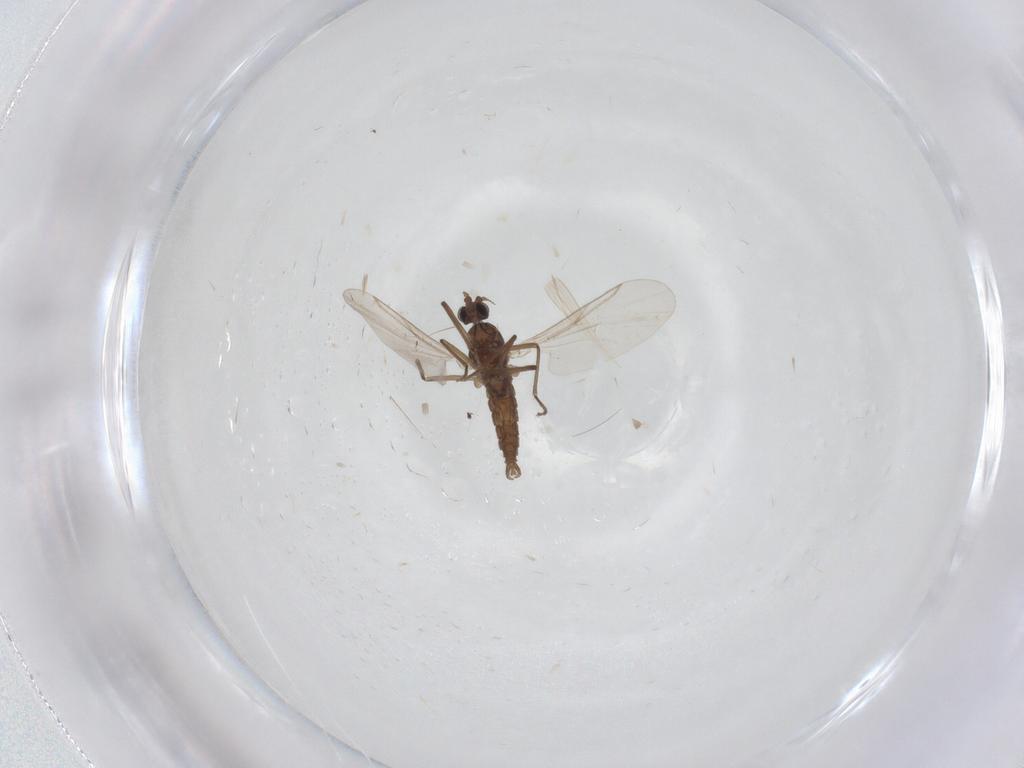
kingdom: Animalia
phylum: Arthropoda
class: Insecta
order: Diptera
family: Cecidomyiidae
